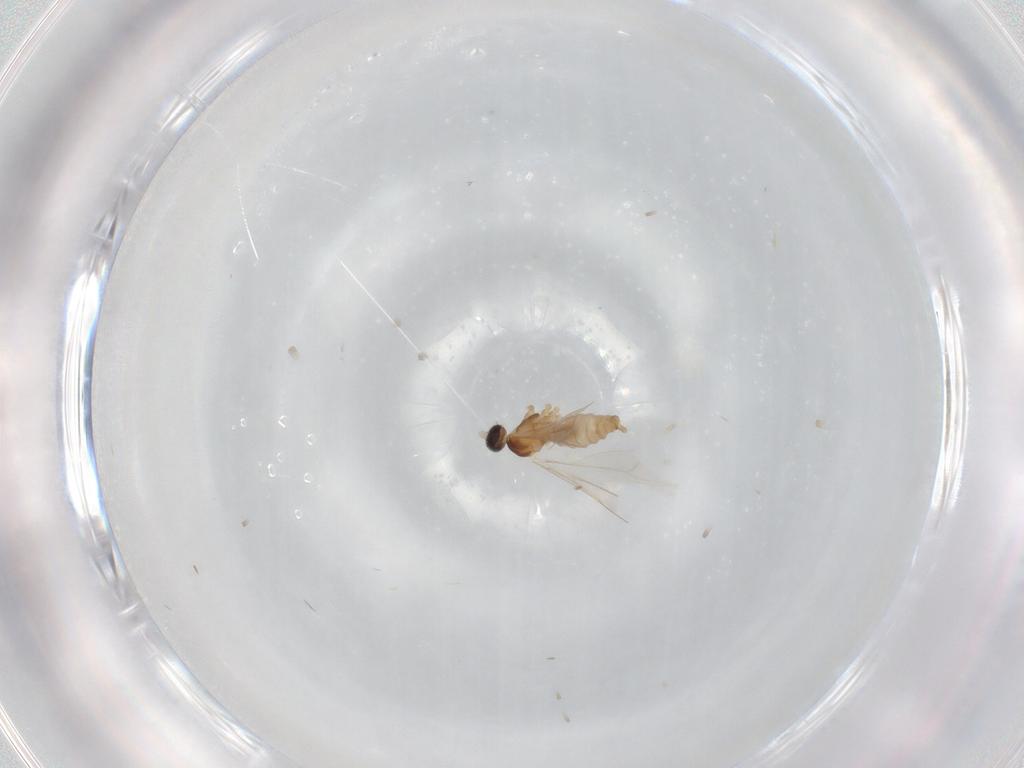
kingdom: Animalia
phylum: Arthropoda
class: Insecta
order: Diptera
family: Cecidomyiidae
